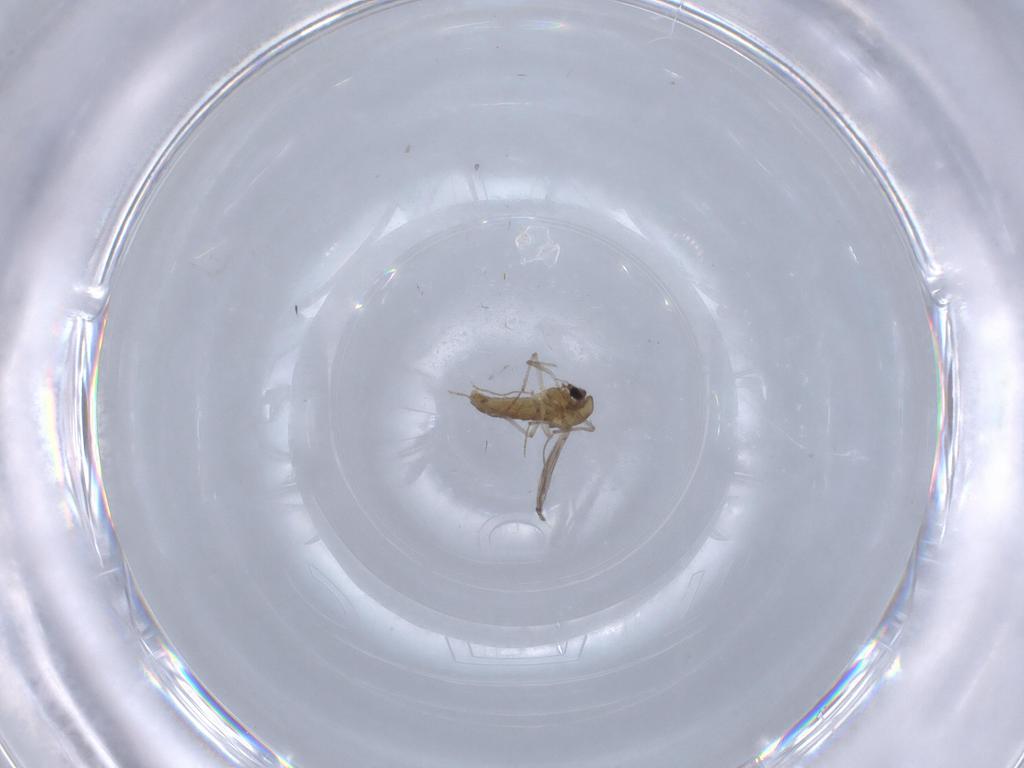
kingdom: Animalia
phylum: Arthropoda
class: Insecta
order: Diptera
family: Chironomidae
